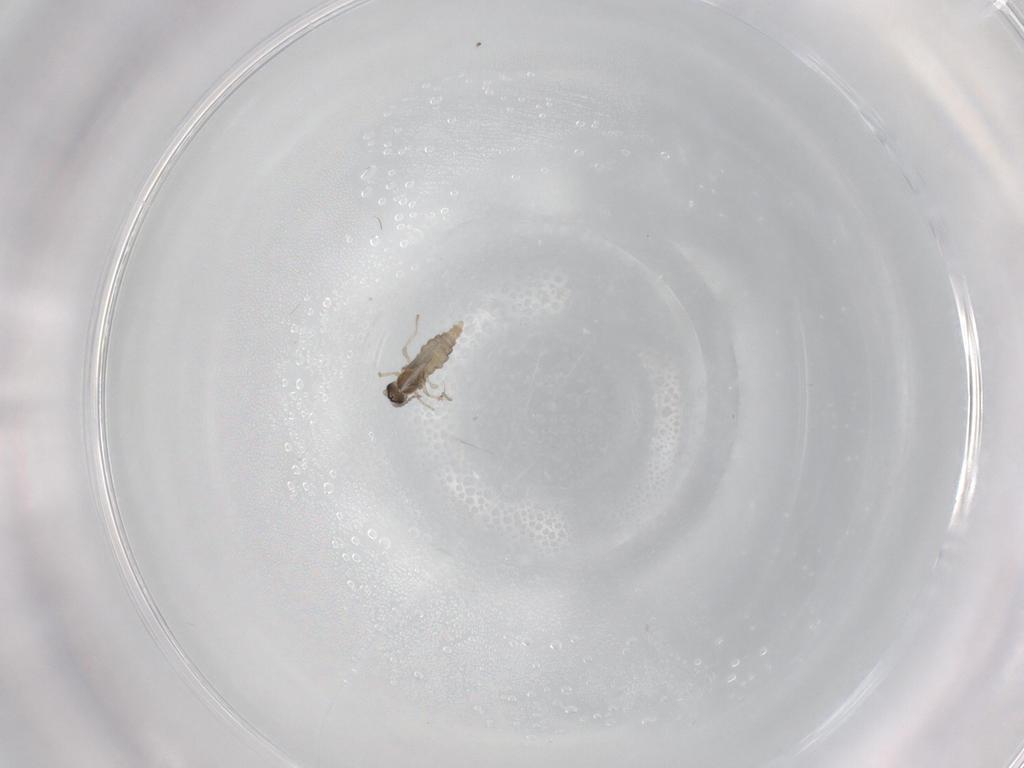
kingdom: Animalia
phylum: Arthropoda
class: Insecta
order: Diptera
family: Cecidomyiidae
